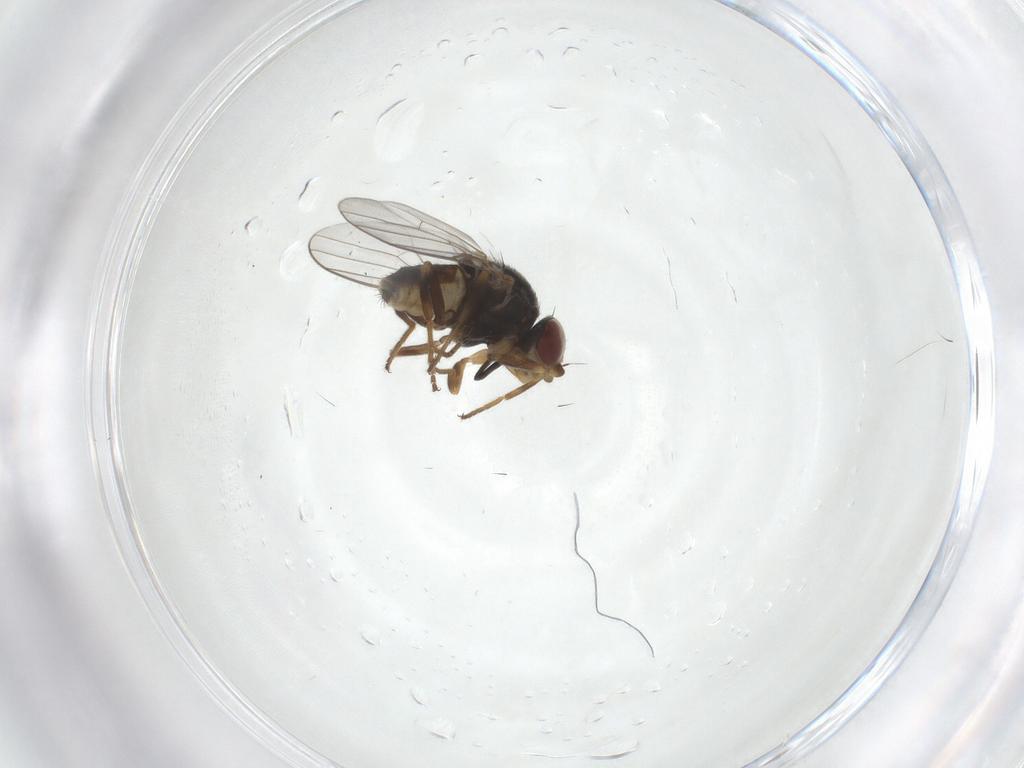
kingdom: Animalia
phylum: Arthropoda
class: Insecta
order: Diptera
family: Chloropidae
